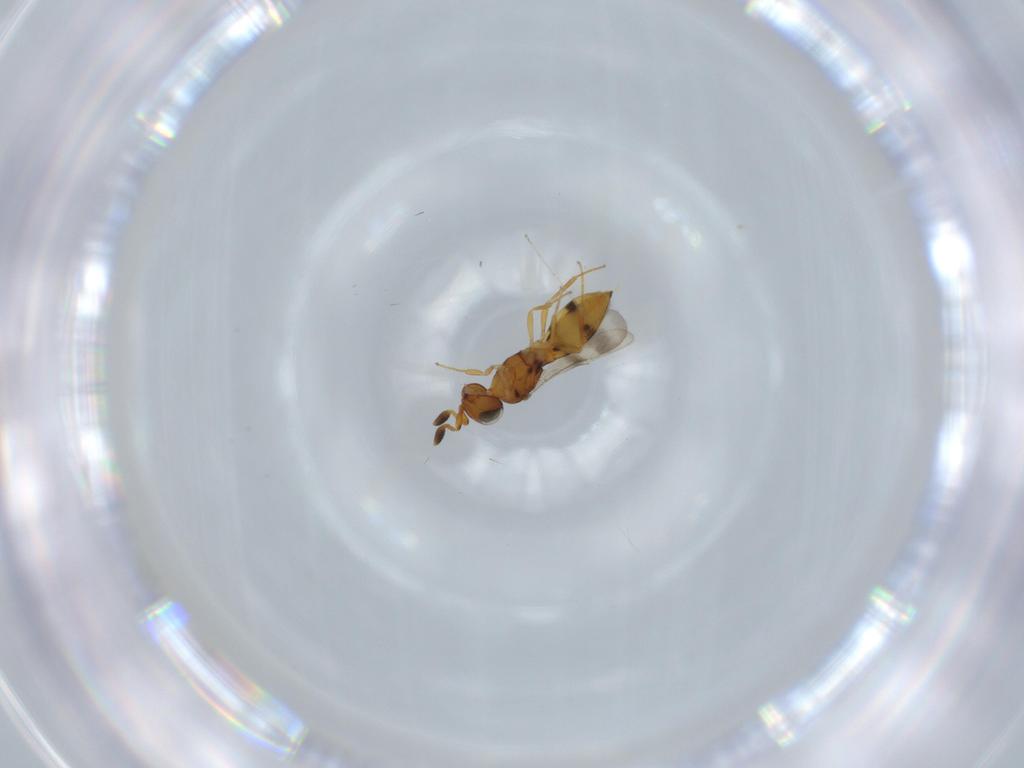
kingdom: Animalia
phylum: Arthropoda
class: Insecta
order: Hymenoptera
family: Scelionidae
